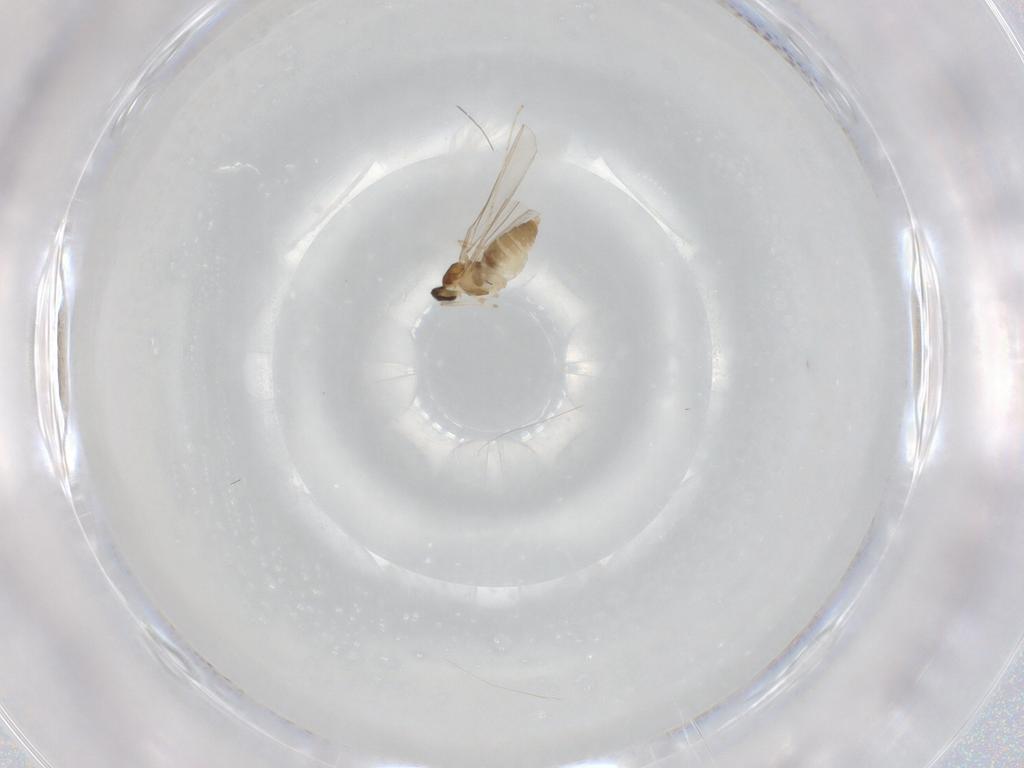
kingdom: Animalia
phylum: Arthropoda
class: Insecta
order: Diptera
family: Cecidomyiidae
